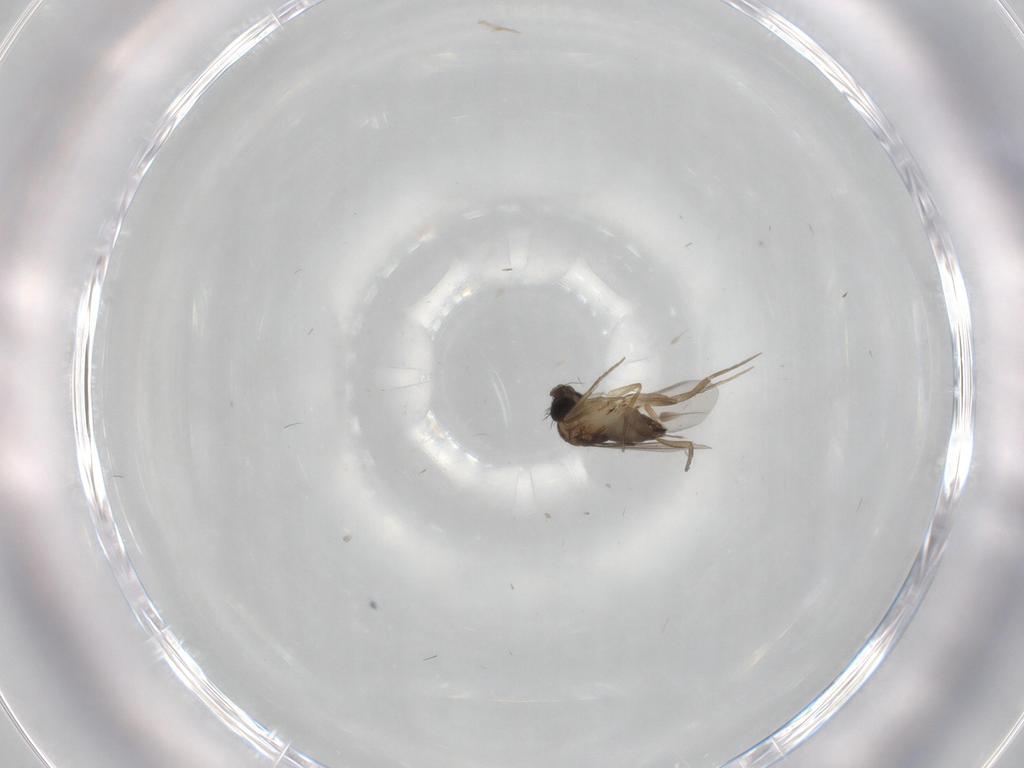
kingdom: Animalia
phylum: Arthropoda
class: Insecta
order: Diptera
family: Phoridae
